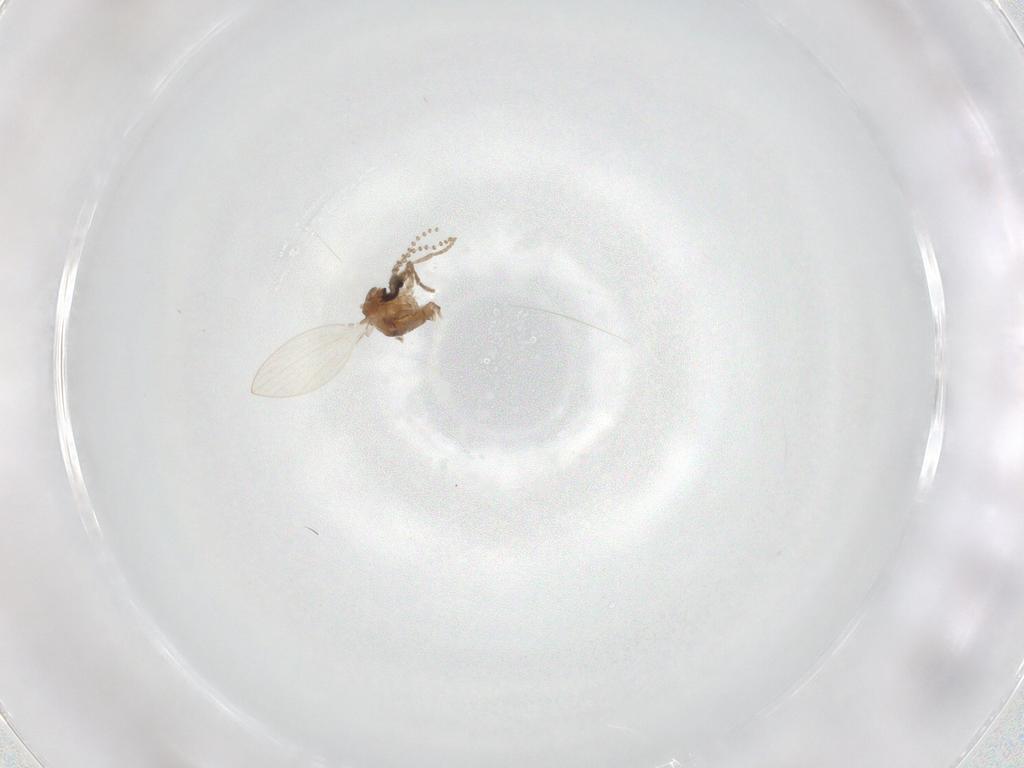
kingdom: Animalia
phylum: Arthropoda
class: Insecta
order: Diptera
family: Psychodidae
